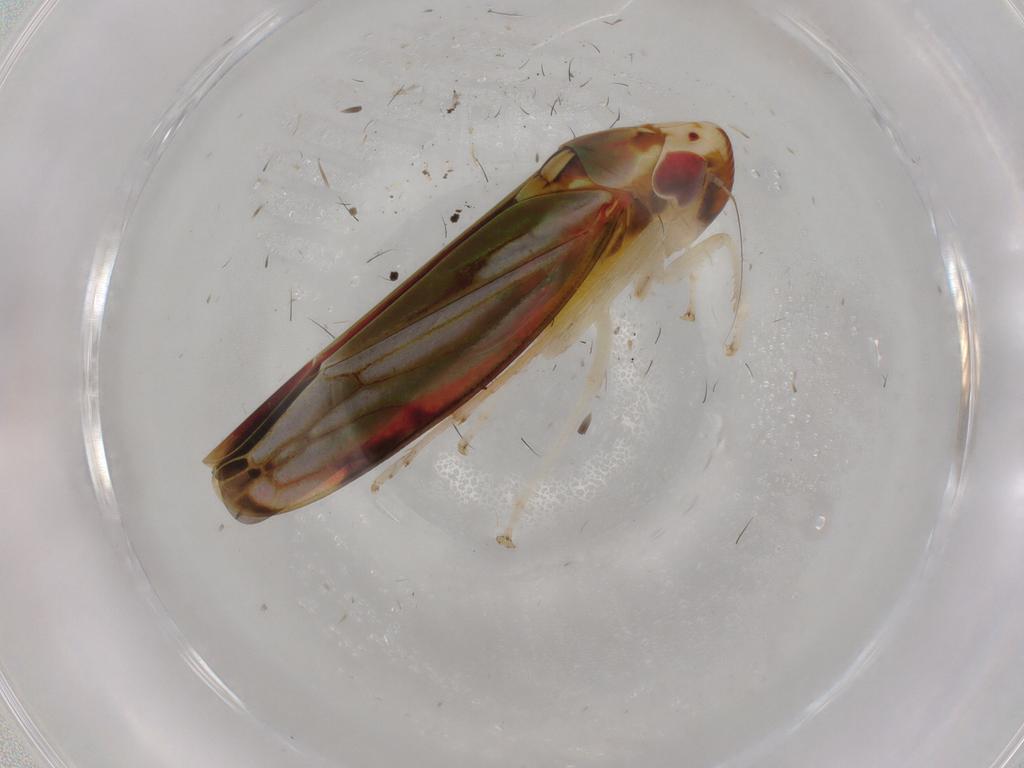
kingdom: Animalia
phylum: Arthropoda
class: Insecta
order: Hemiptera
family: Cicadellidae
